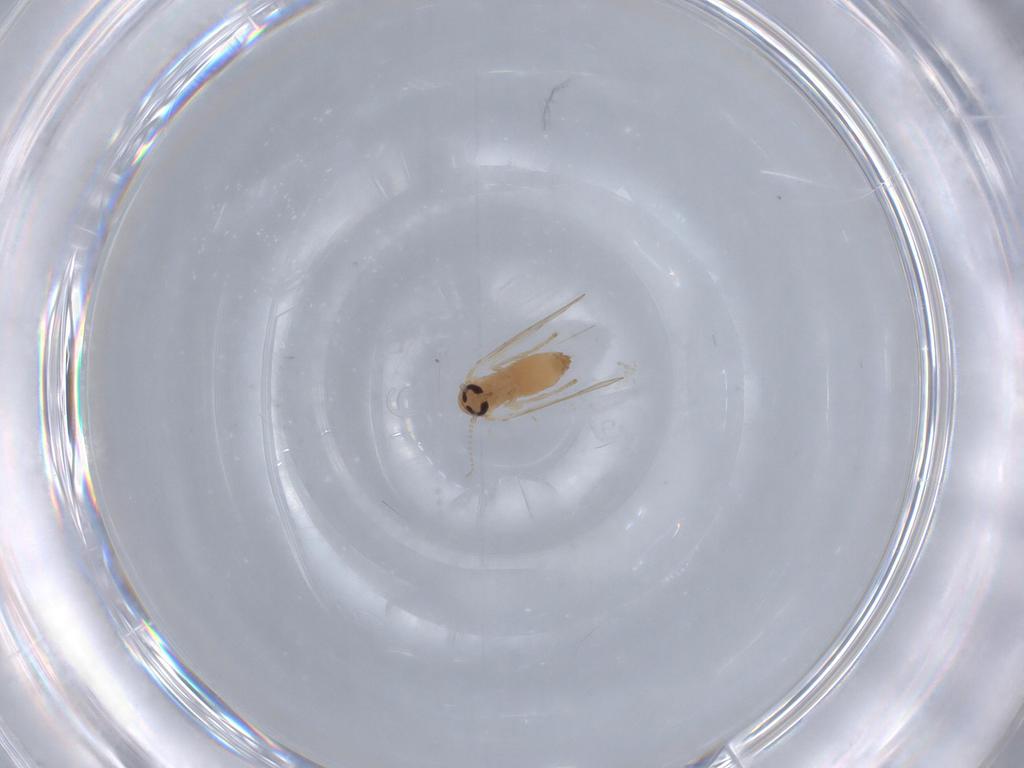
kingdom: Animalia
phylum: Arthropoda
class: Insecta
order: Diptera
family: Psychodidae
